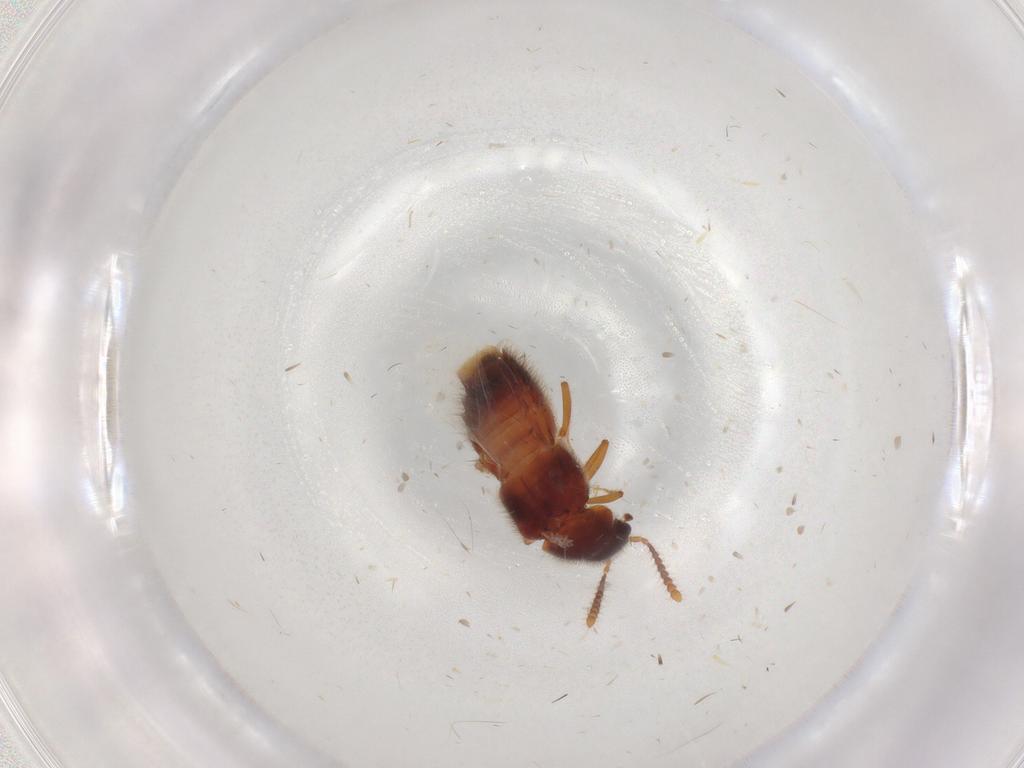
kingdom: Animalia
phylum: Arthropoda
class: Insecta
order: Coleoptera
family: Staphylinidae
